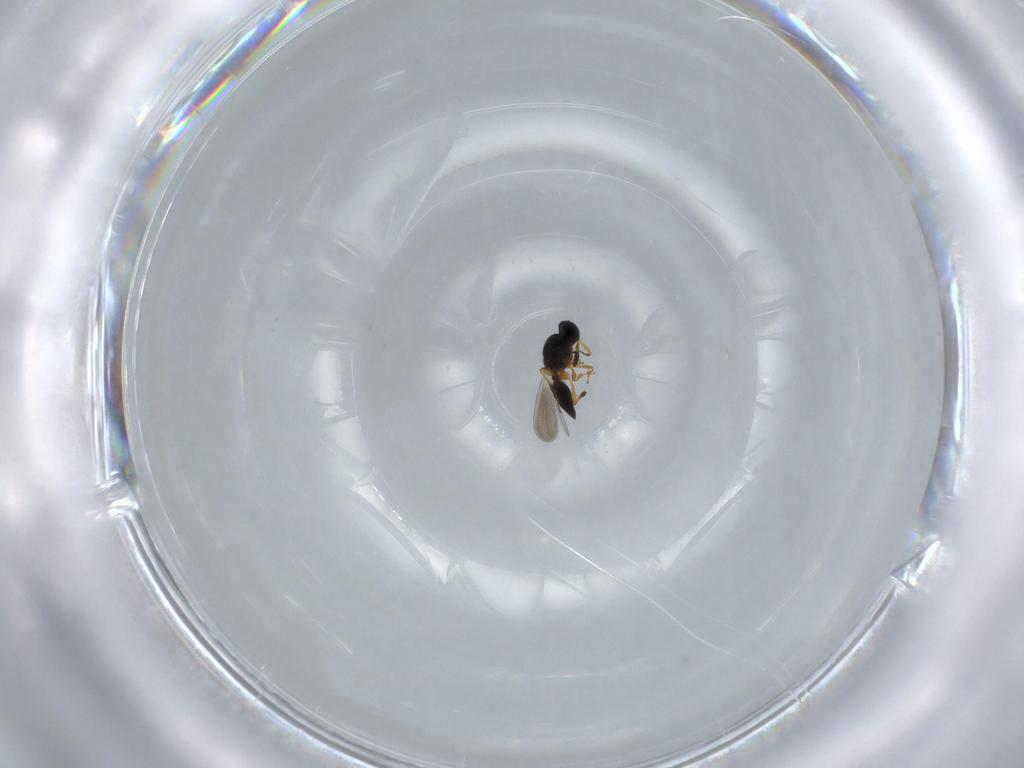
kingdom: Animalia
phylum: Arthropoda
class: Insecta
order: Hymenoptera
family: Platygastridae
